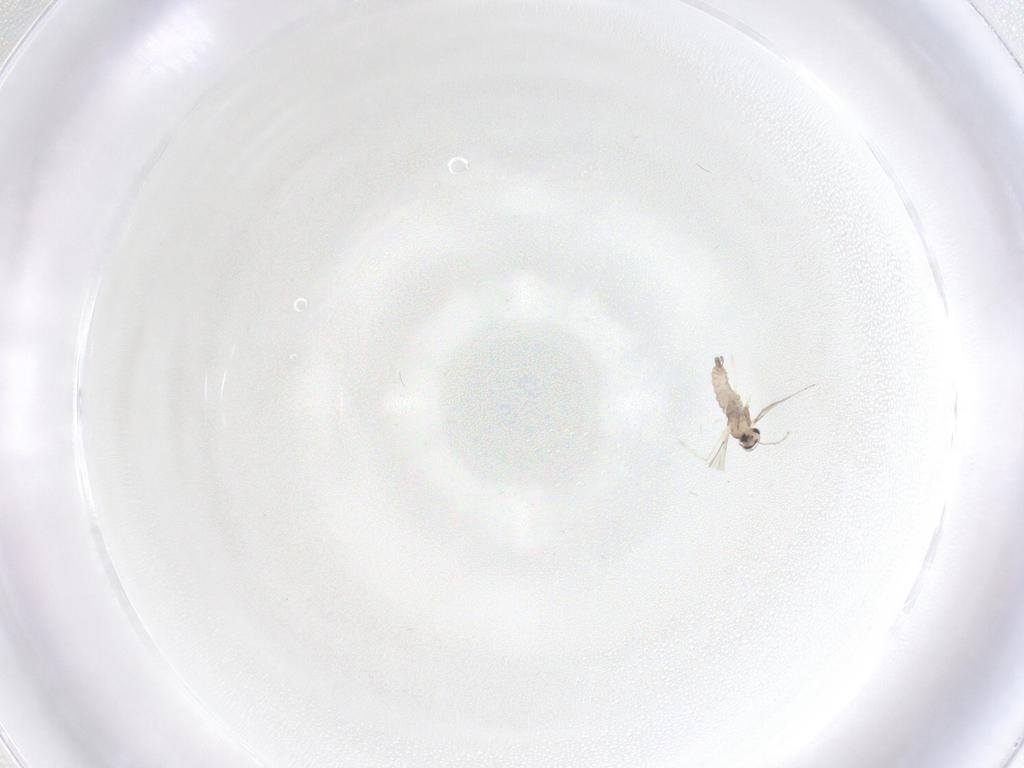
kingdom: Animalia
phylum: Arthropoda
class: Insecta
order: Diptera
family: Cecidomyiidae
